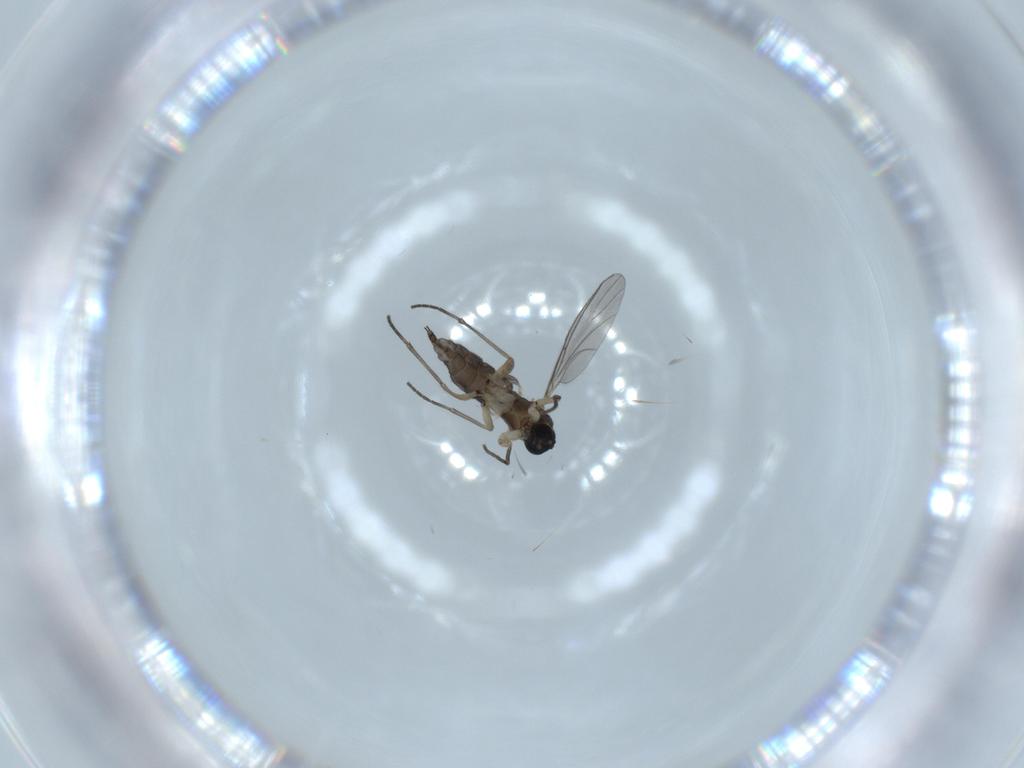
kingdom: Animalia
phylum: Arthropoda
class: Insecta
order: Diptera
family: Sciaridae
